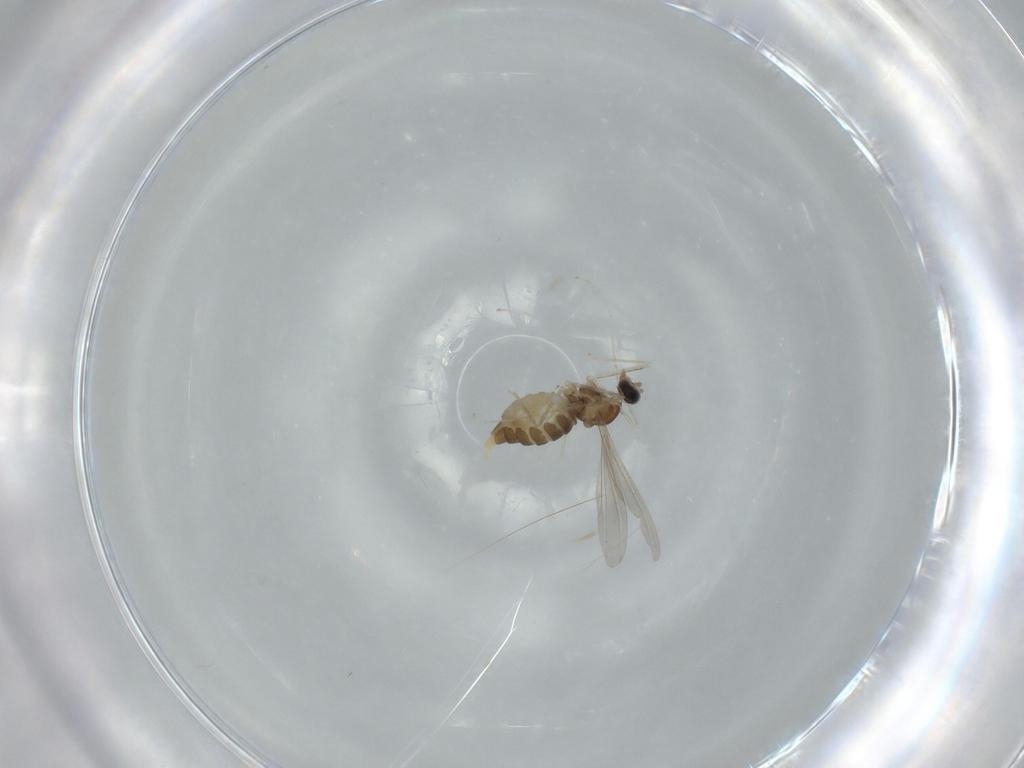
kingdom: Animalia
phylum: Arthropoda
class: Insecta
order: Diptera
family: Cecidomyiidae
